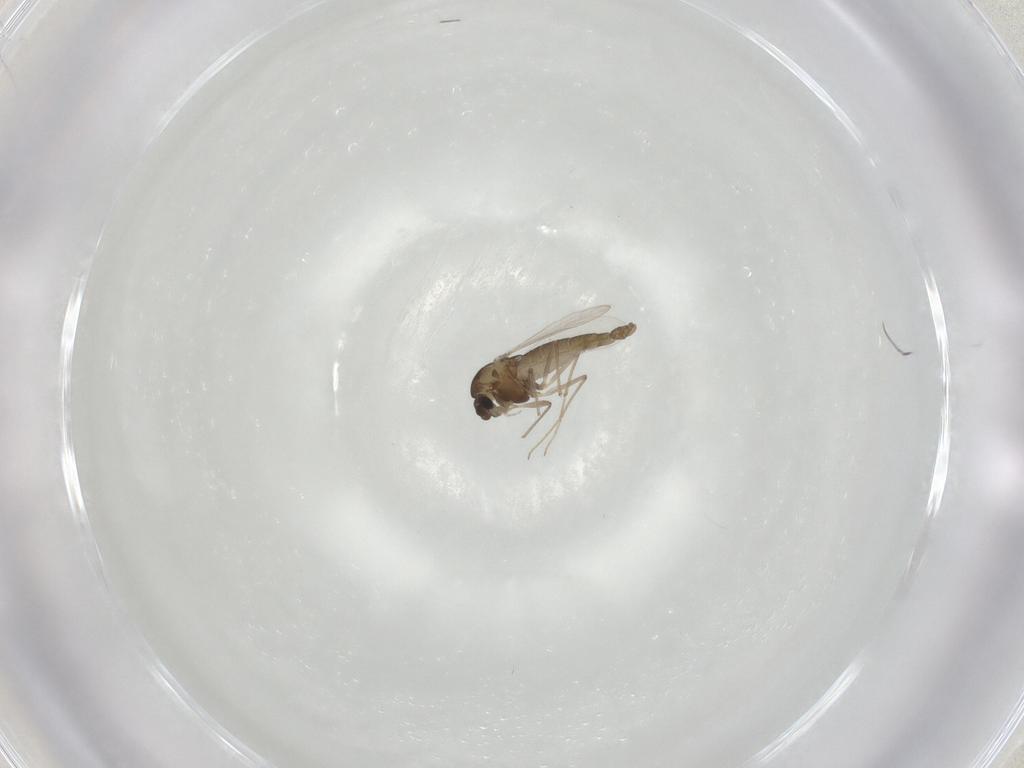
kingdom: Animalia
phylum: Arthropoda
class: Insecta
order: Diptera
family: Chironomidae
